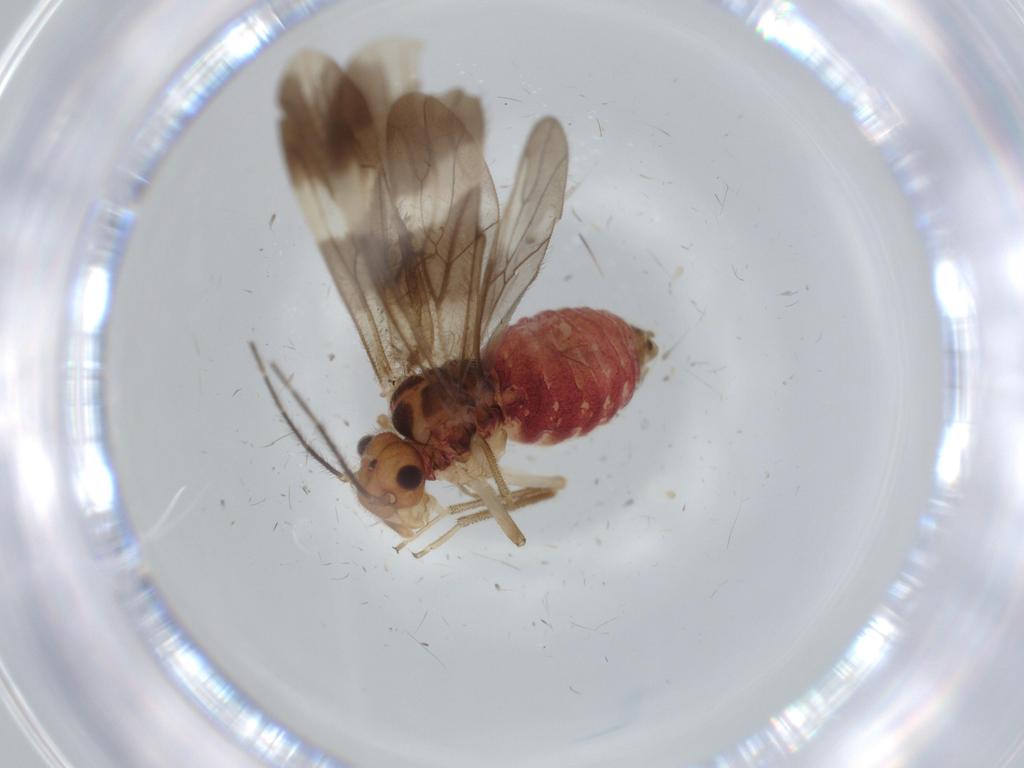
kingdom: Animalia
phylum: Arthropoda
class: Insecta
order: Psocodea
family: Amphipsocidae
